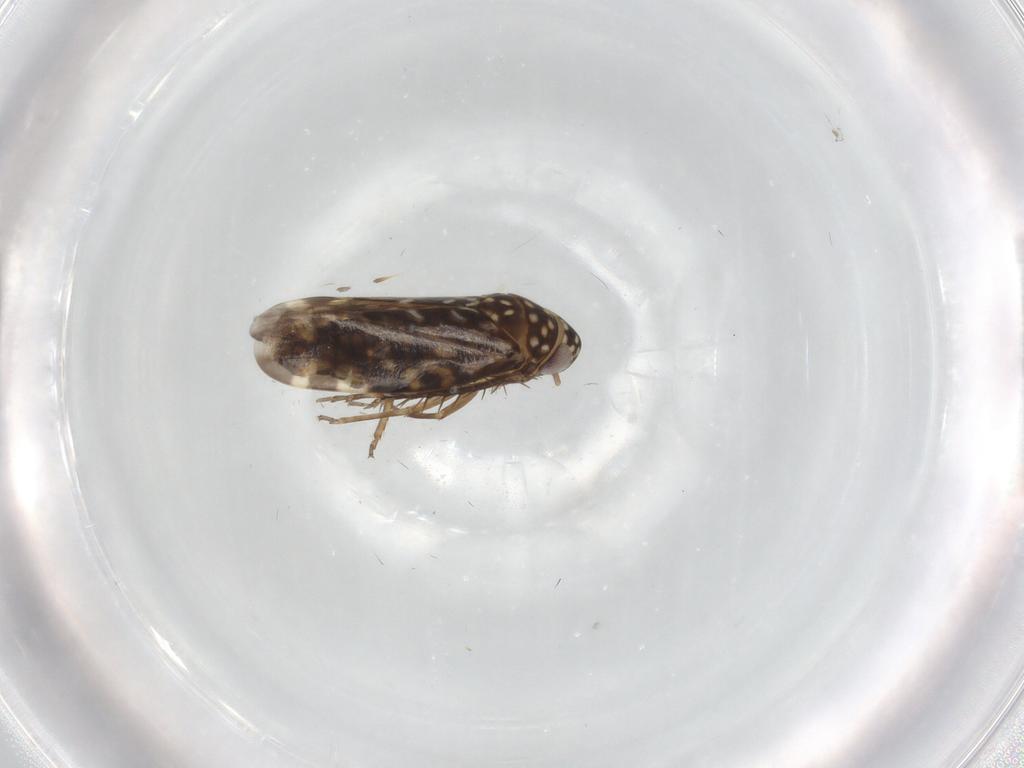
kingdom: Animalia
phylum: Arthropoda
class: Insecta
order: Hemiptera
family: Cicadellidae
